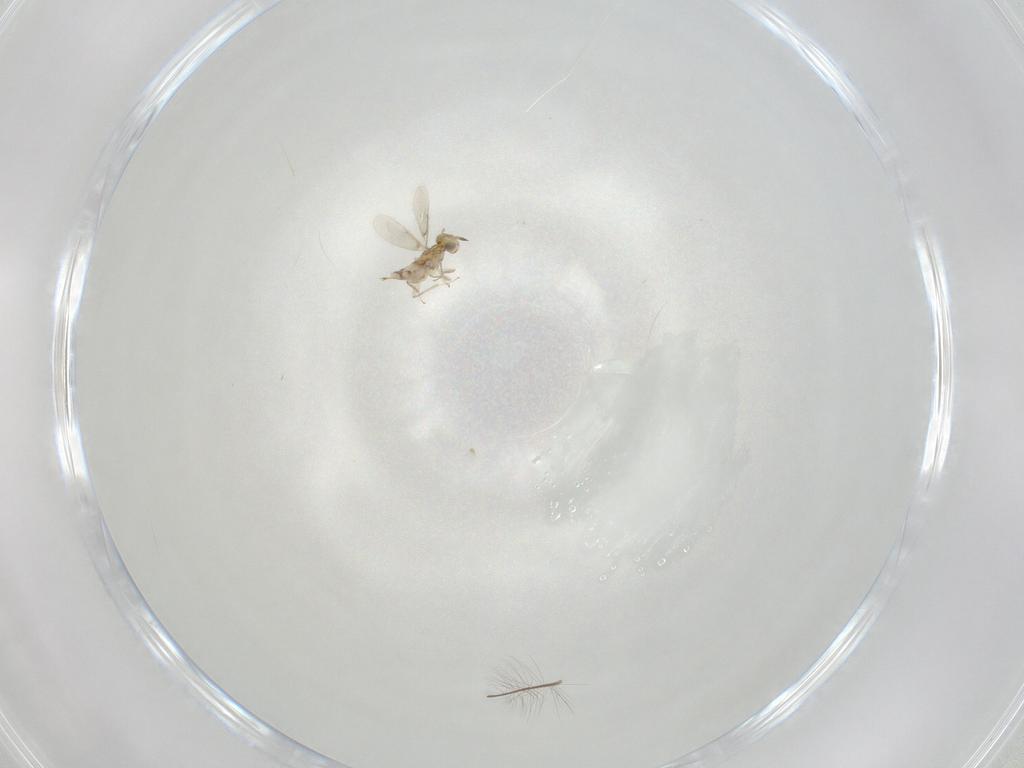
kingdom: Animalia
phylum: Arthropoda
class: Insecta
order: Hymenoptera
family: Aphelinidae
